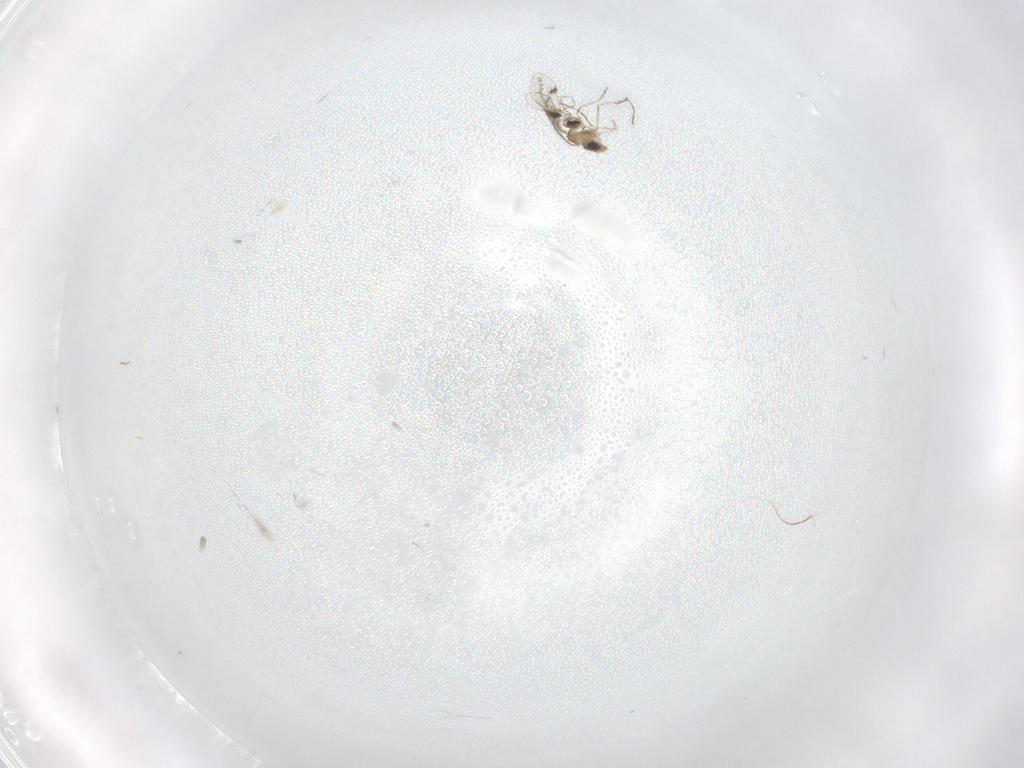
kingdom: Animalia
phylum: Arthropoda
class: Insecta
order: Diptera
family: Chironomidae
